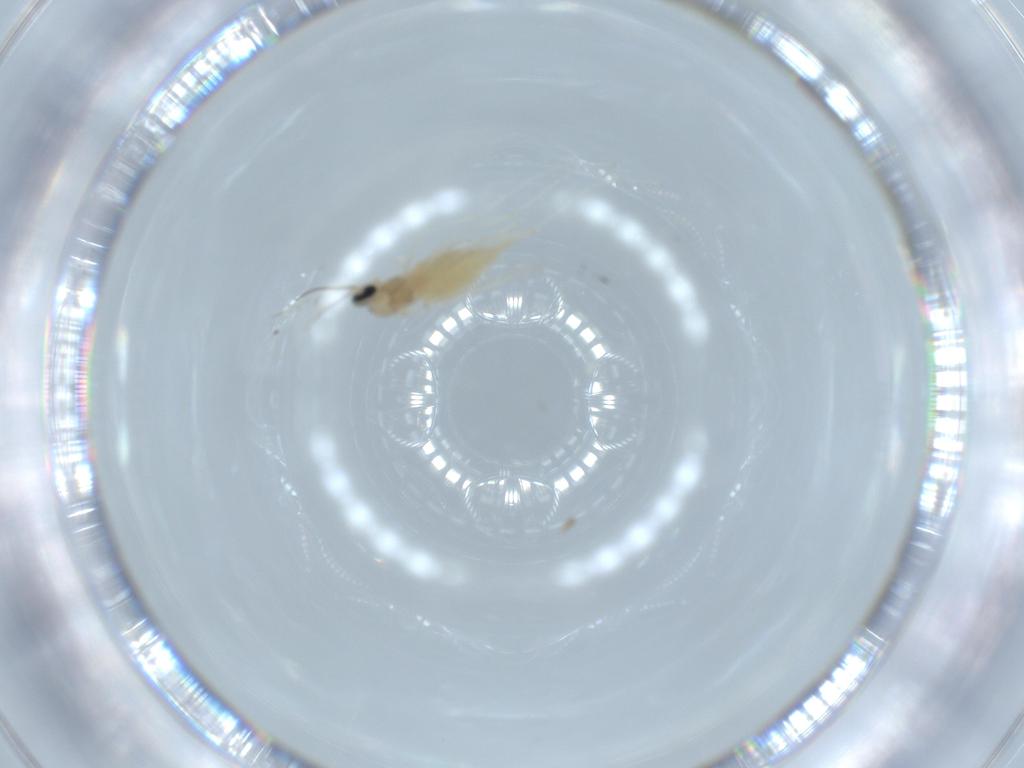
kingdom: Animalia
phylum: Arthropoda
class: Insecta
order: Diptera
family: Cecidomyiidae
